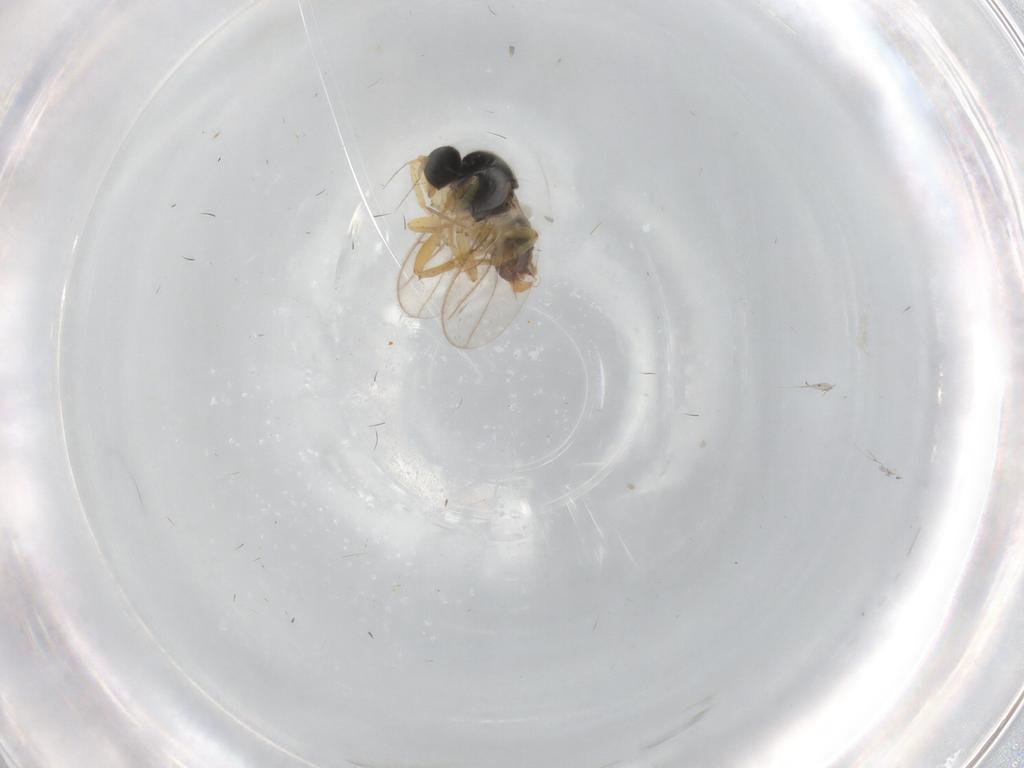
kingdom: Animalia
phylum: Arthropoda
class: Insecta
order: Diptera
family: Hybotidae
